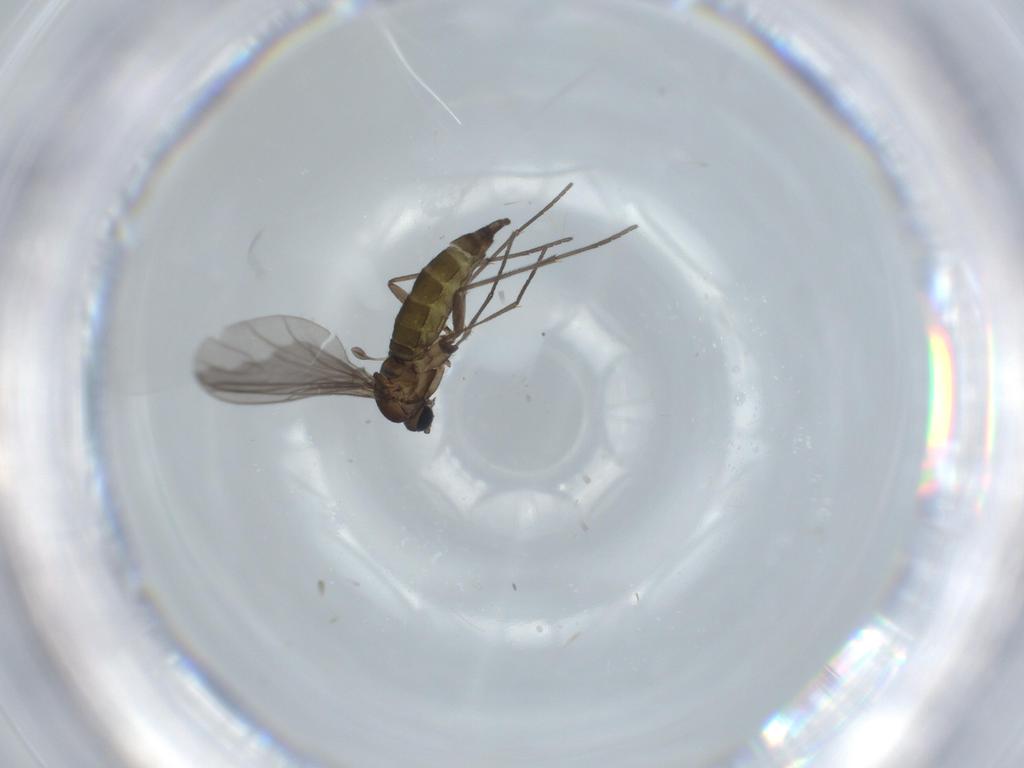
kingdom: Animalia
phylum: Arthropoda
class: Insecta
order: Diptera
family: Sciaridae
